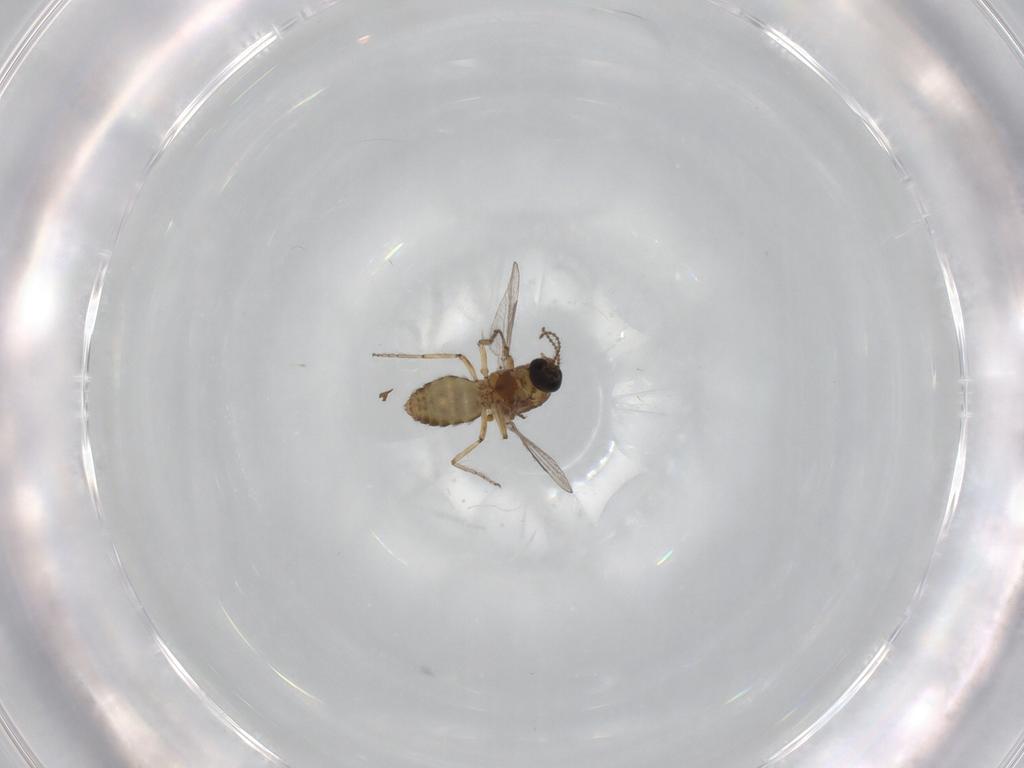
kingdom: Animalia
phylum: Arthropoda
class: Insecta
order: Diptera
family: Ceratopogonidae
